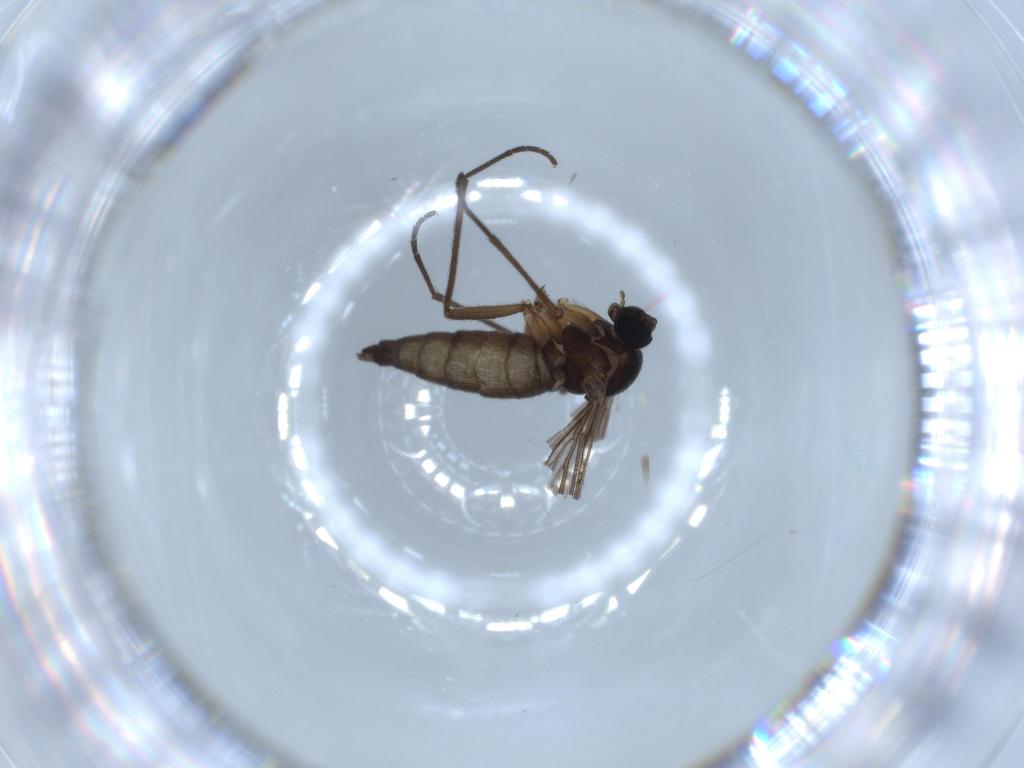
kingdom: Animalia
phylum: Arthropoda
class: Insecta
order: Diptera
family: Sciaridae
